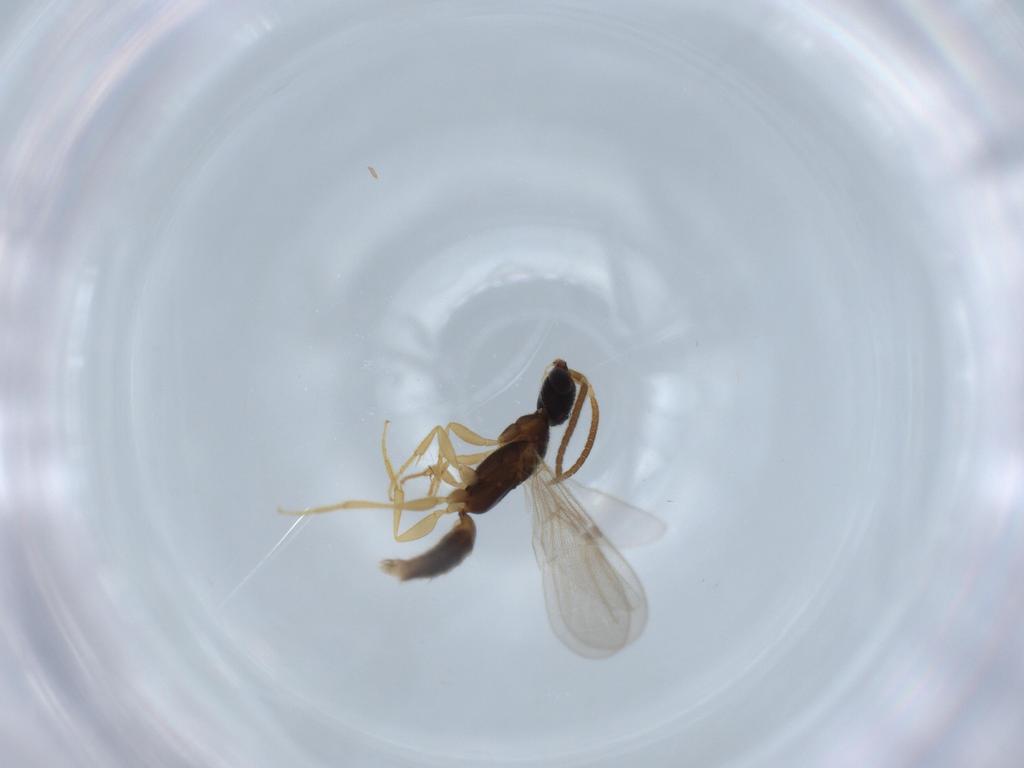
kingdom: Animalia
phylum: Arthropoda
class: Insecta
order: Hymenoptera
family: Bethylidae
